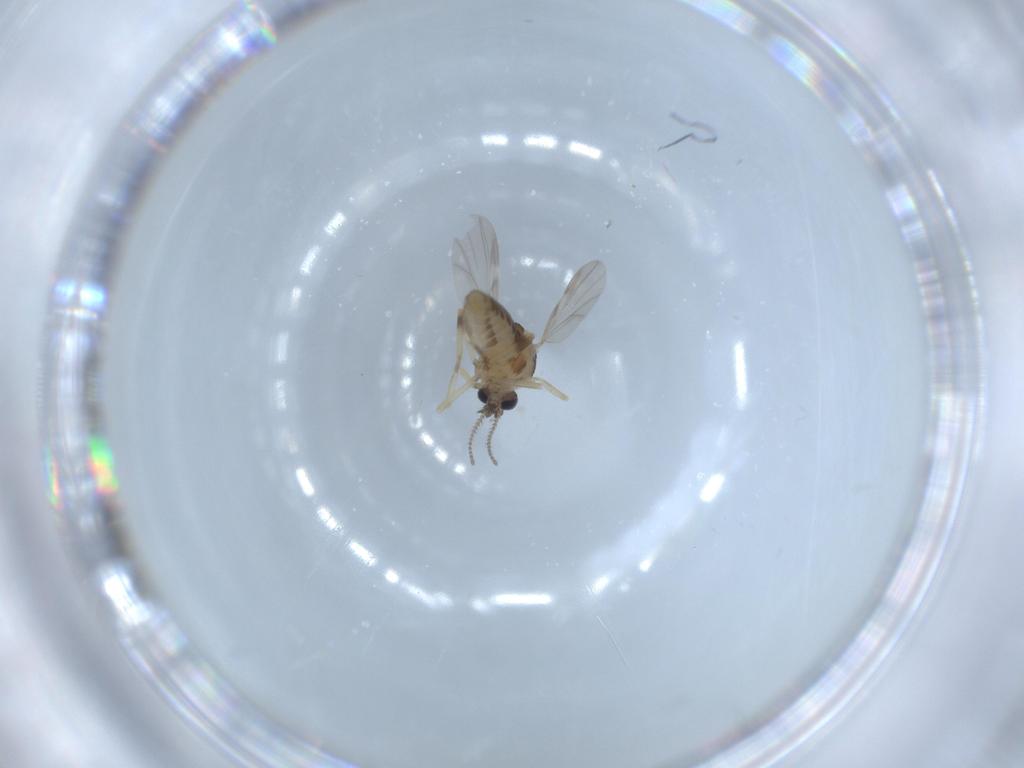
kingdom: Animalia
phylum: Arthropoda
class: Insecta
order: Diptera
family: Ceratopogonidae
